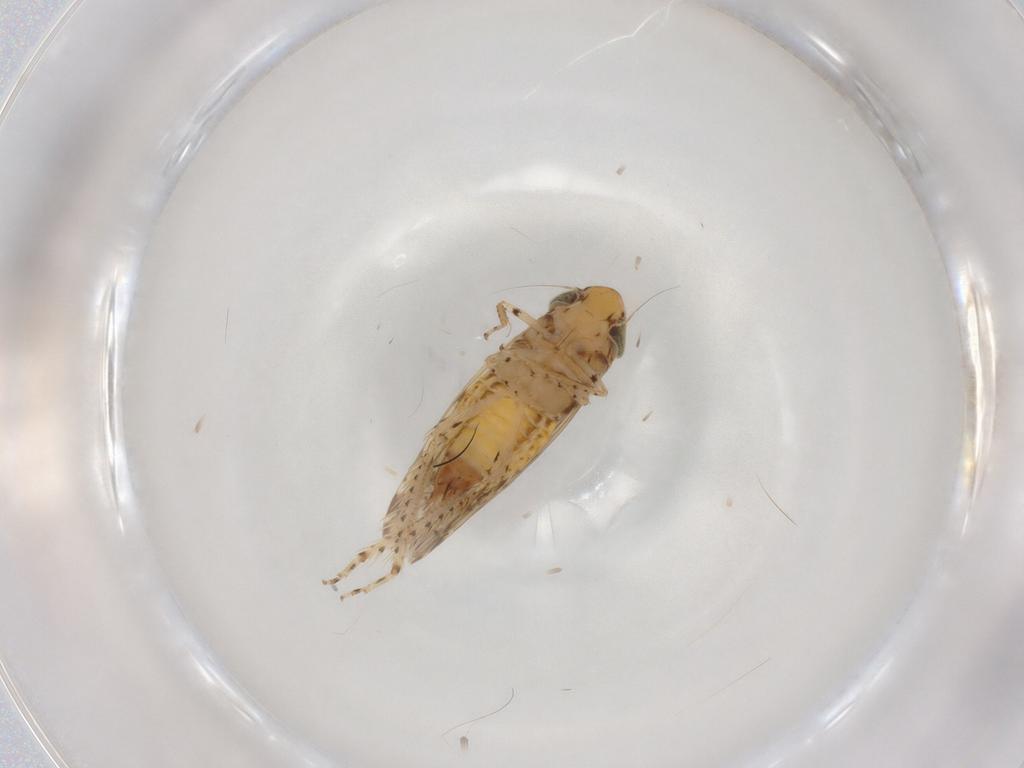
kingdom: Animalia
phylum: Arthropoda
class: Insecta
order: Hemiptera
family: Cicadellidae
